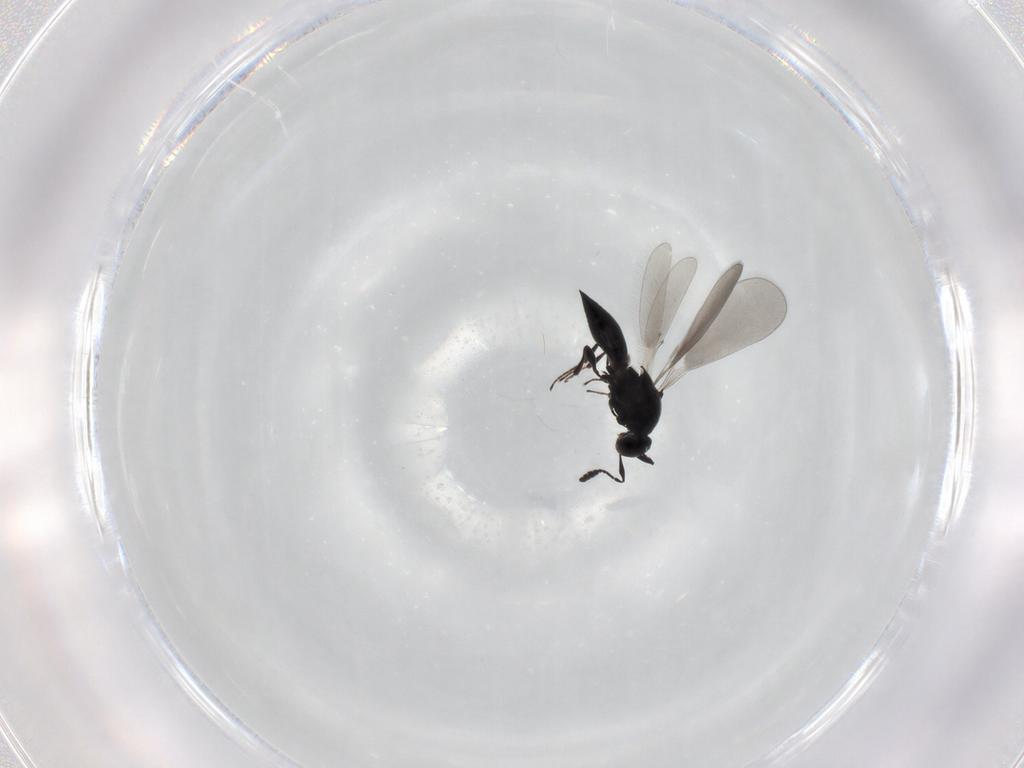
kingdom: Animalia
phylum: Arthropoda
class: Insecta
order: Hymenoptera
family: Platygastridae
